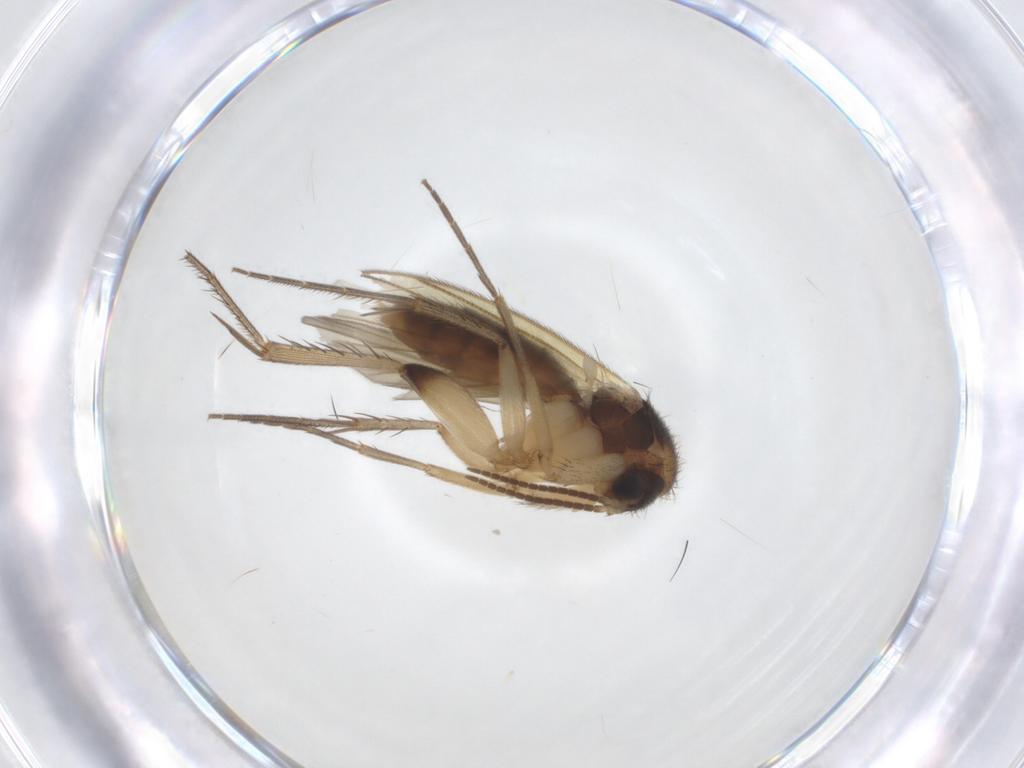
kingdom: Animalia
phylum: Arthropoda
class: Insecta
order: Diptera
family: Mycetophilidae
